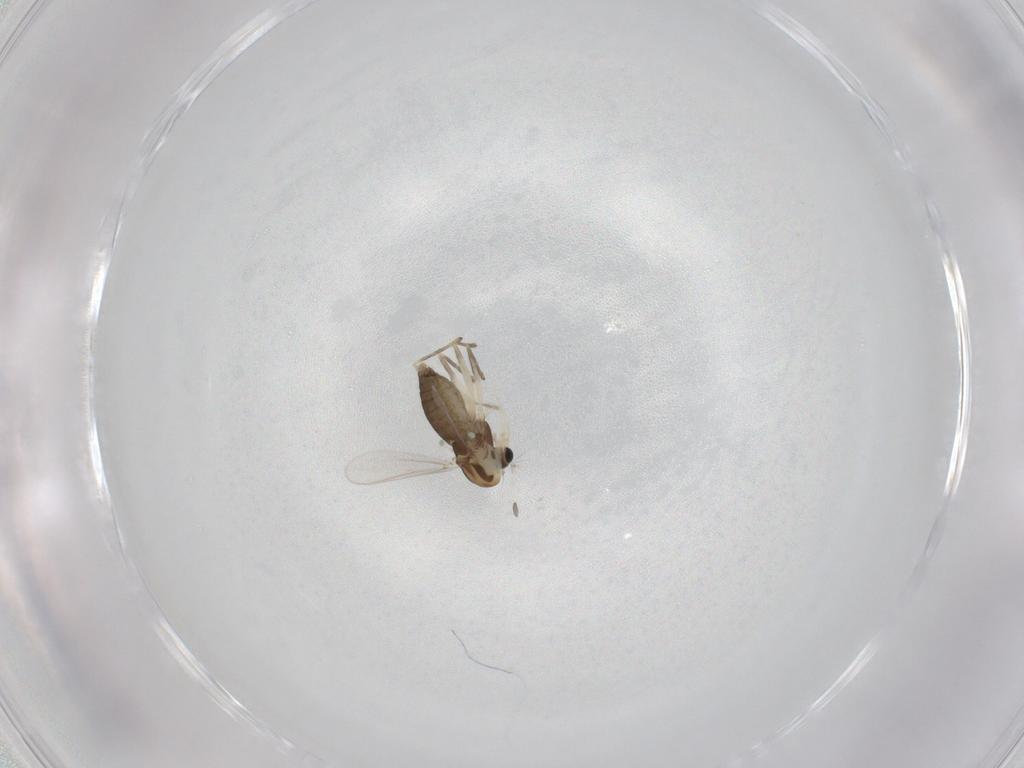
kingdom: Animalia
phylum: Arthropoda
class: Insecta
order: Diptera
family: Chironomidae
